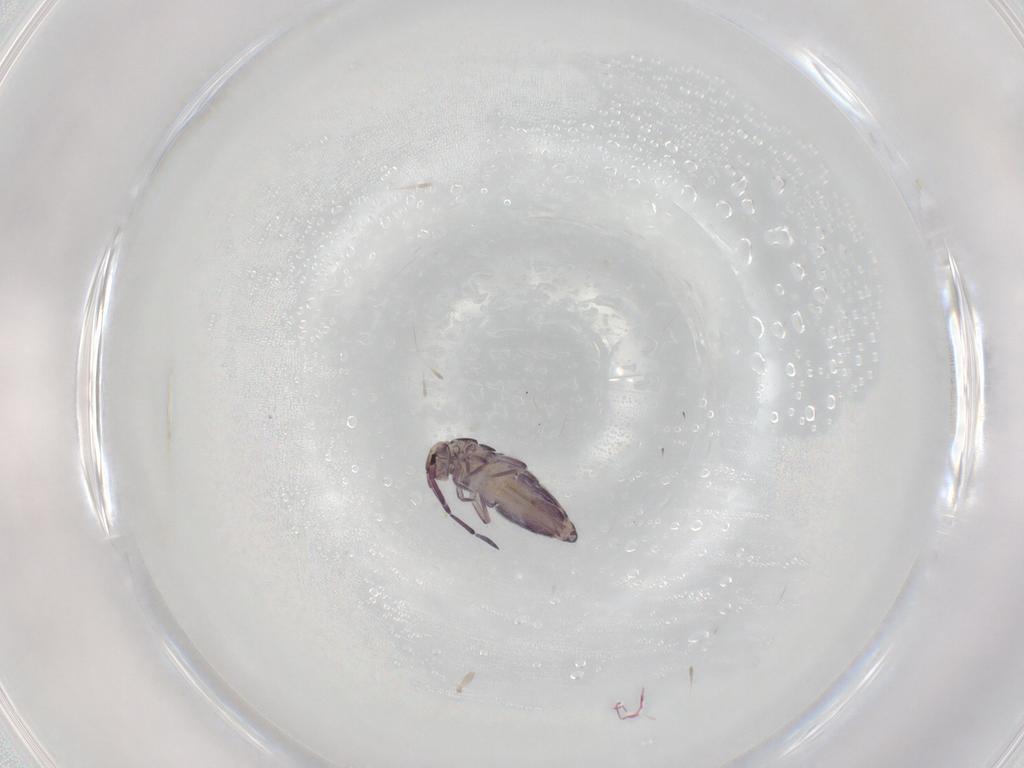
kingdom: Animalia
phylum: Arthropoda
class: Collembola
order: Entomobryomorpha
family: Entomobryidae
